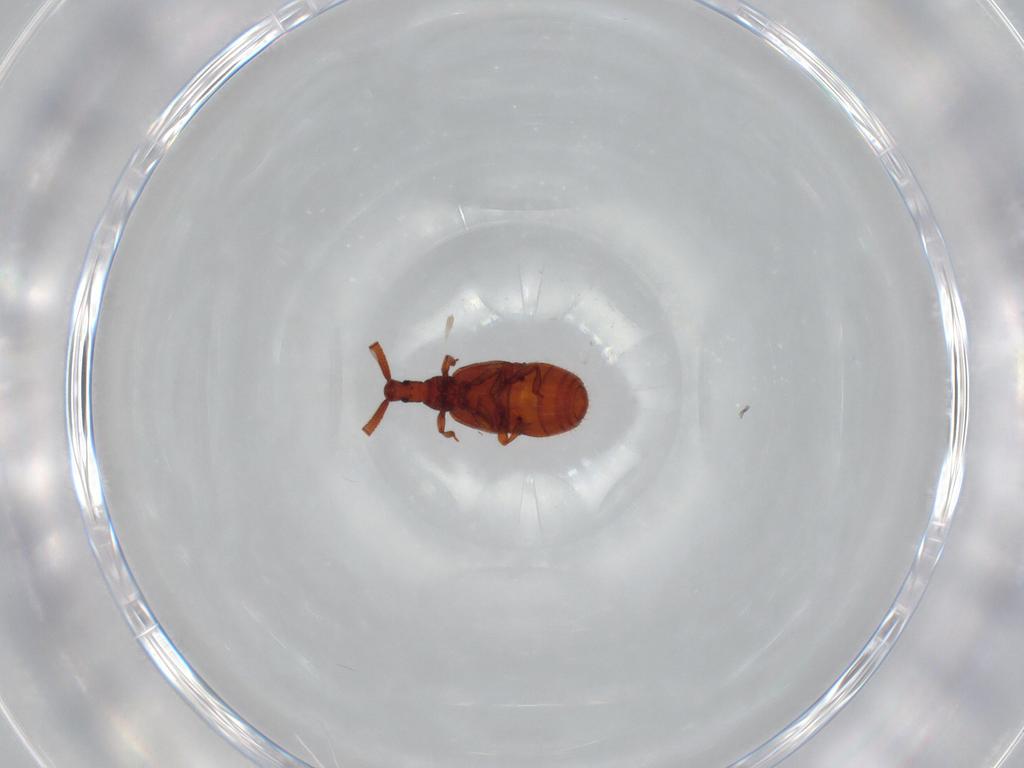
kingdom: Animalia
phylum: Arthropoda
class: Insecta
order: Coleoptera
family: Staphylinidae
